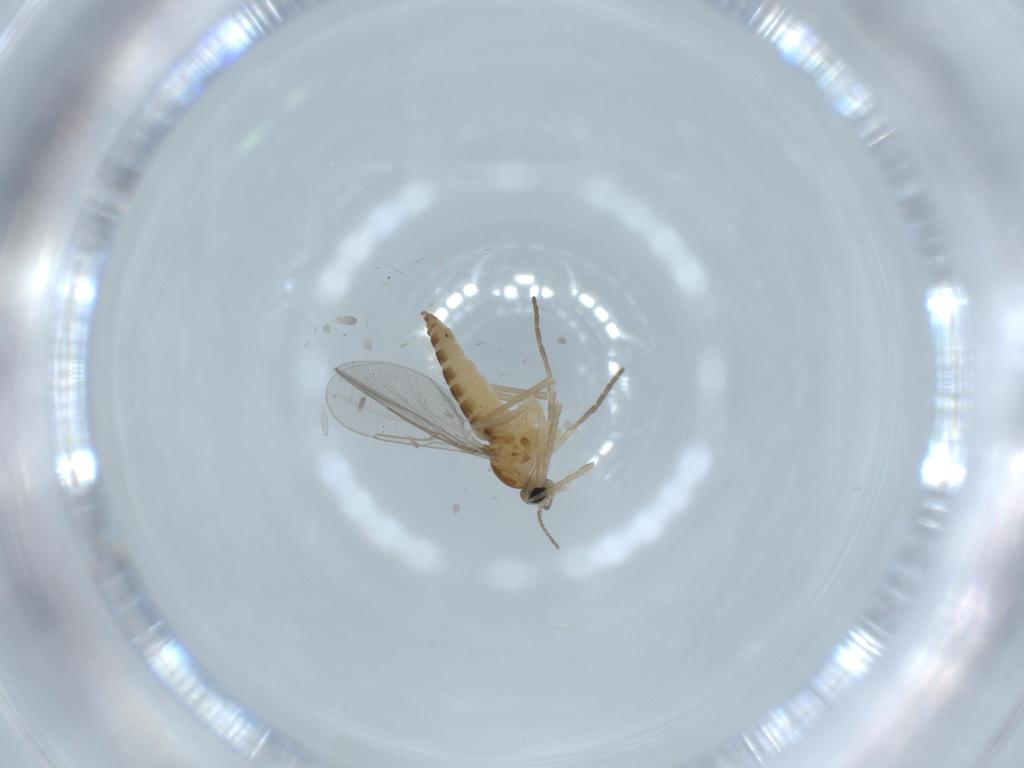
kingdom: Animalia
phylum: Arthropoda
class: Insecta
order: Diptera
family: Cecidomyiidae
